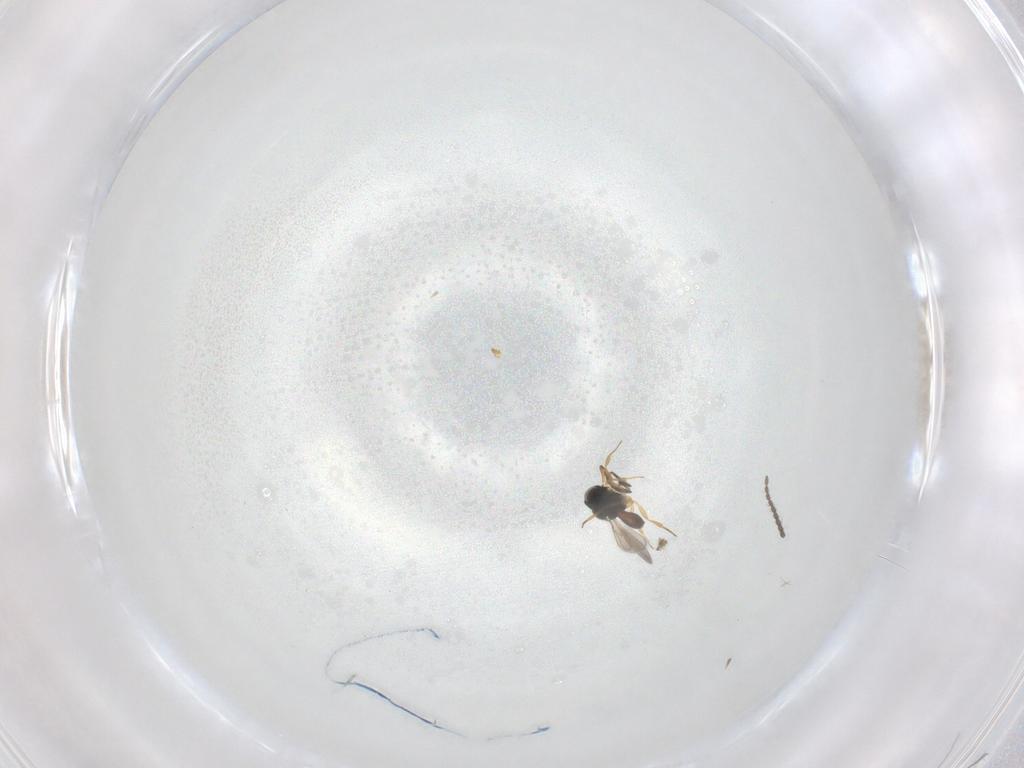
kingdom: Animalia
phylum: Arthropoda
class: Insecta
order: Hymenoptera
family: Scelionidae
